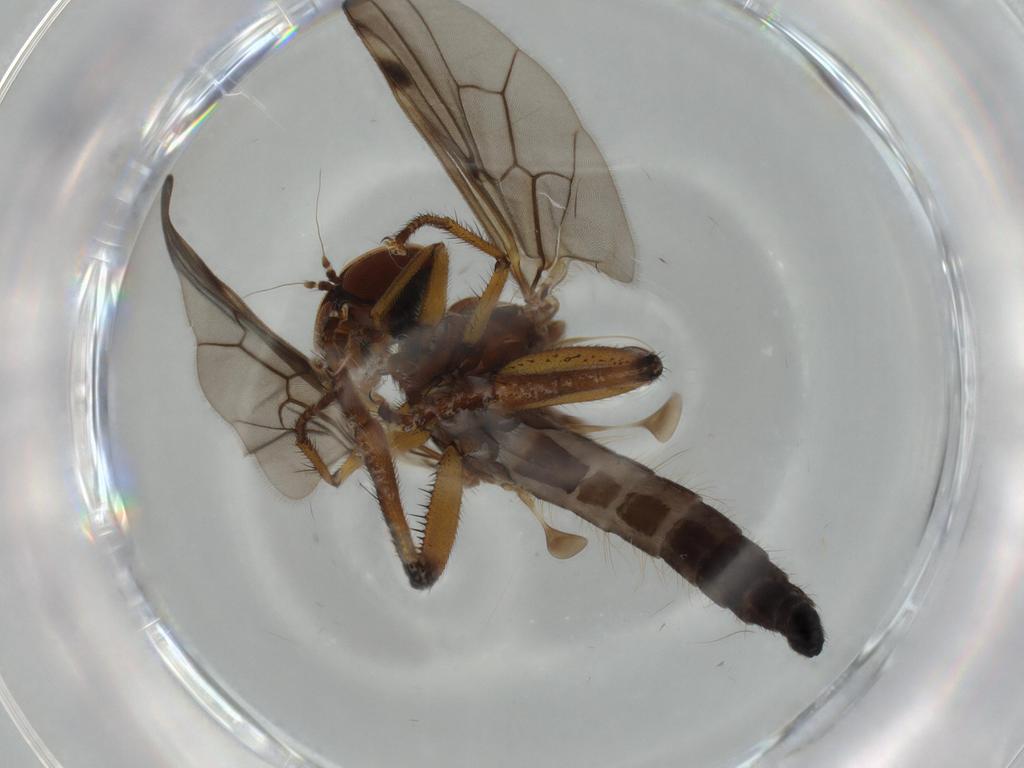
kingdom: Animalia
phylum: Arthropoda
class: Insecta
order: Diptera
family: Hybotidae
